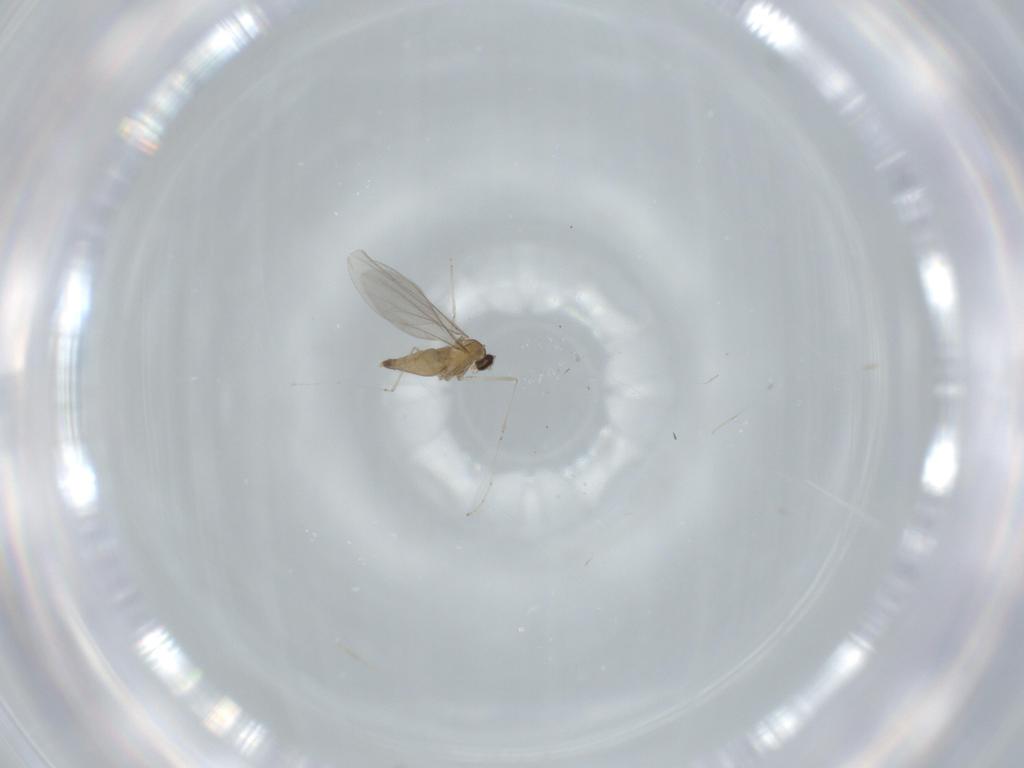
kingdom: Animalia
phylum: Arthropoda
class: Insecta
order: Diptera
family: Cecidomyiidae
